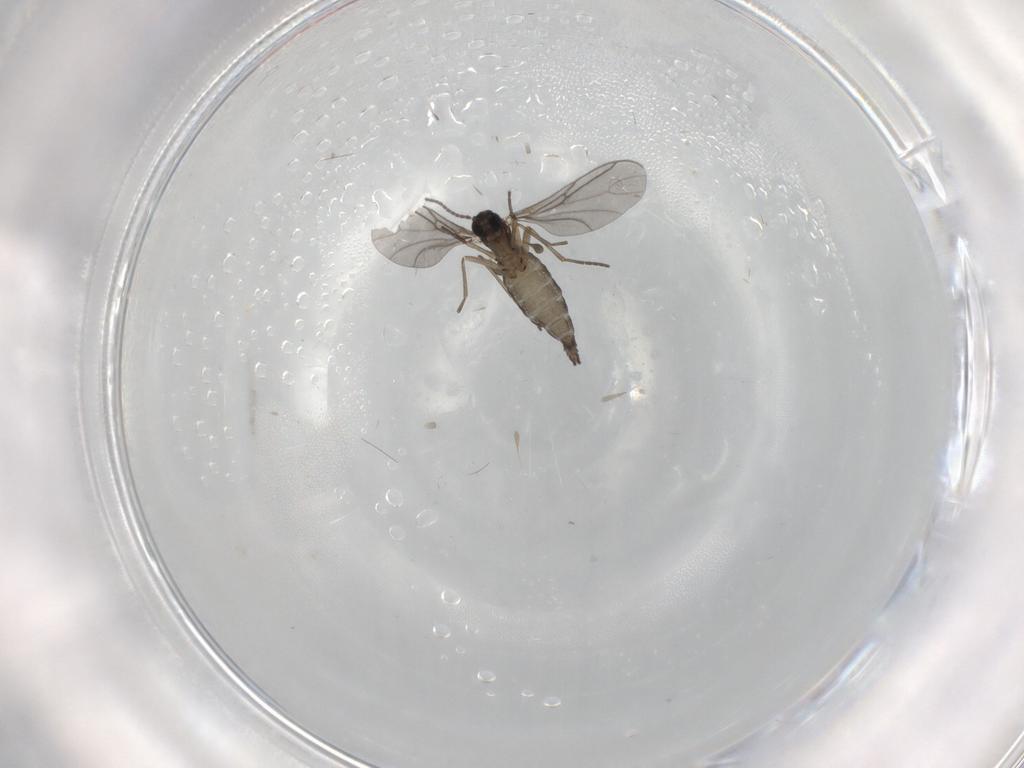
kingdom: Animalia
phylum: Arthropoda
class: Insecta
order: Diptera
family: Sciaridae
